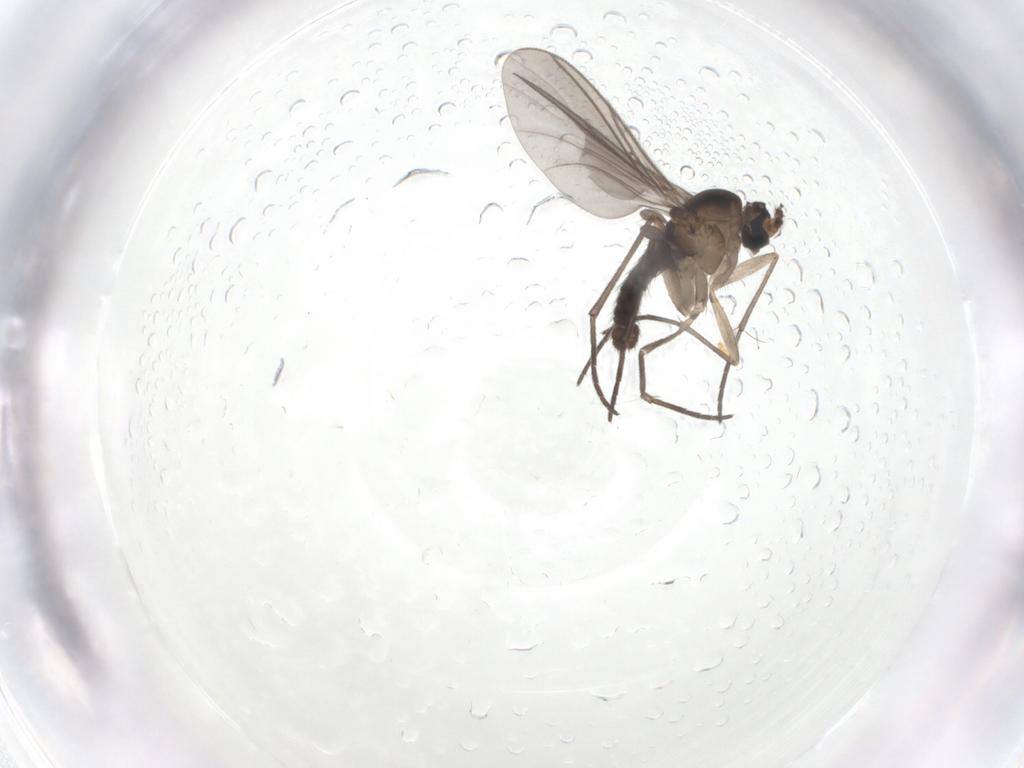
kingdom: Animalia
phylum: Arthropoda
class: Insecta
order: Diptera
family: Sciaridae
